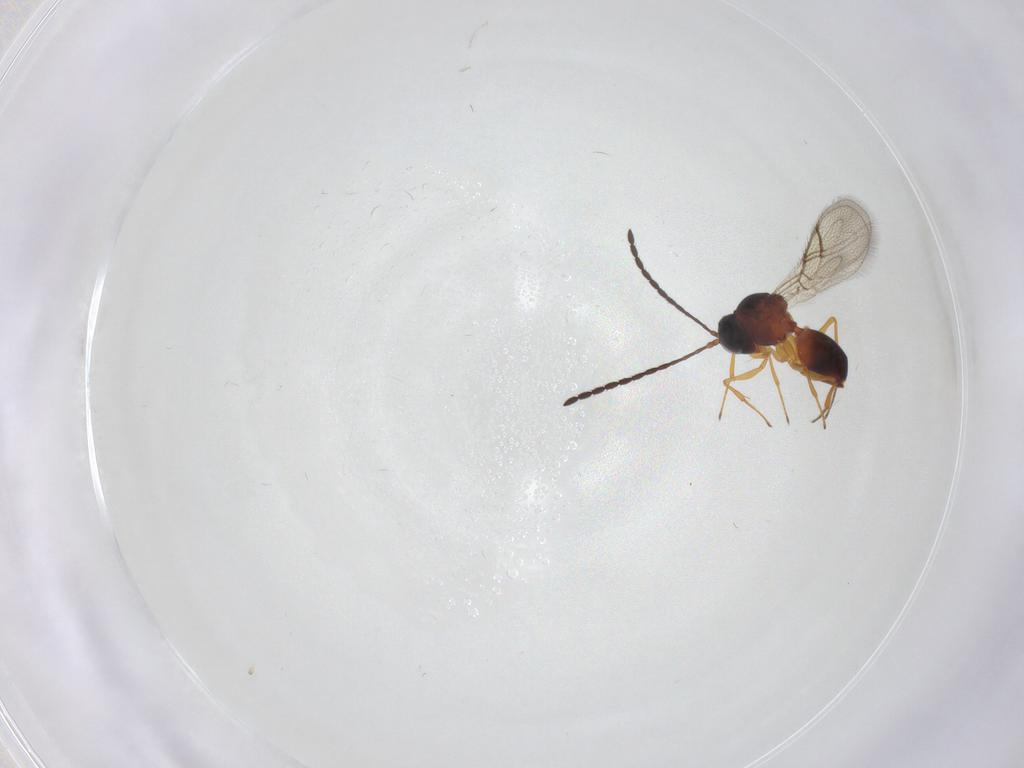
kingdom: Animalia
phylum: Arthropoda
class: Insecta
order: Hymenoptera
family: Figitidae
